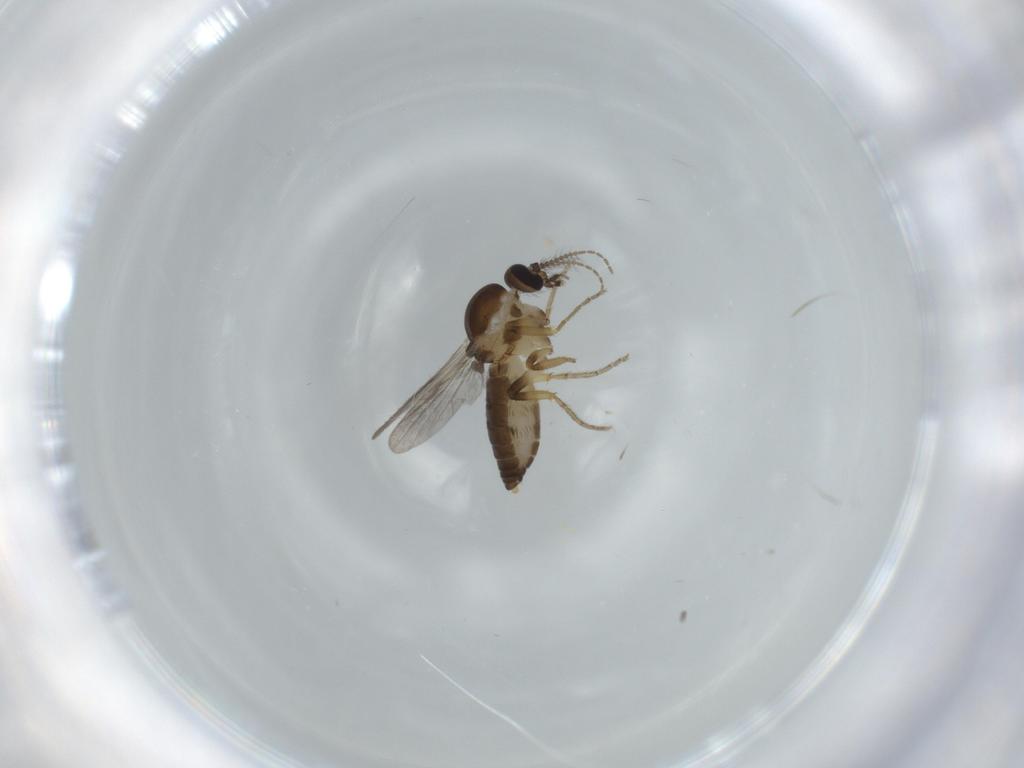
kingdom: Animalia
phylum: Arthropoda
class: Insecta
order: Diptera
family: Ceratopogonidae
